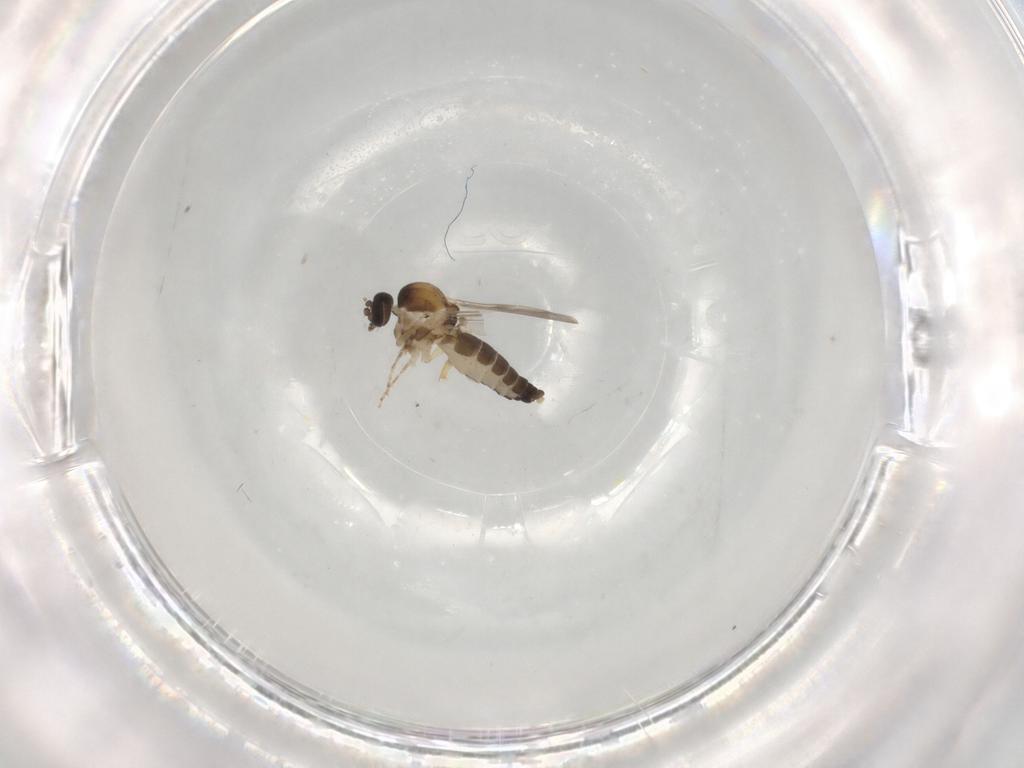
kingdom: Animalia
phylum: Arthropoda
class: Insecta
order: Diptera
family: Ceratopogonidae
